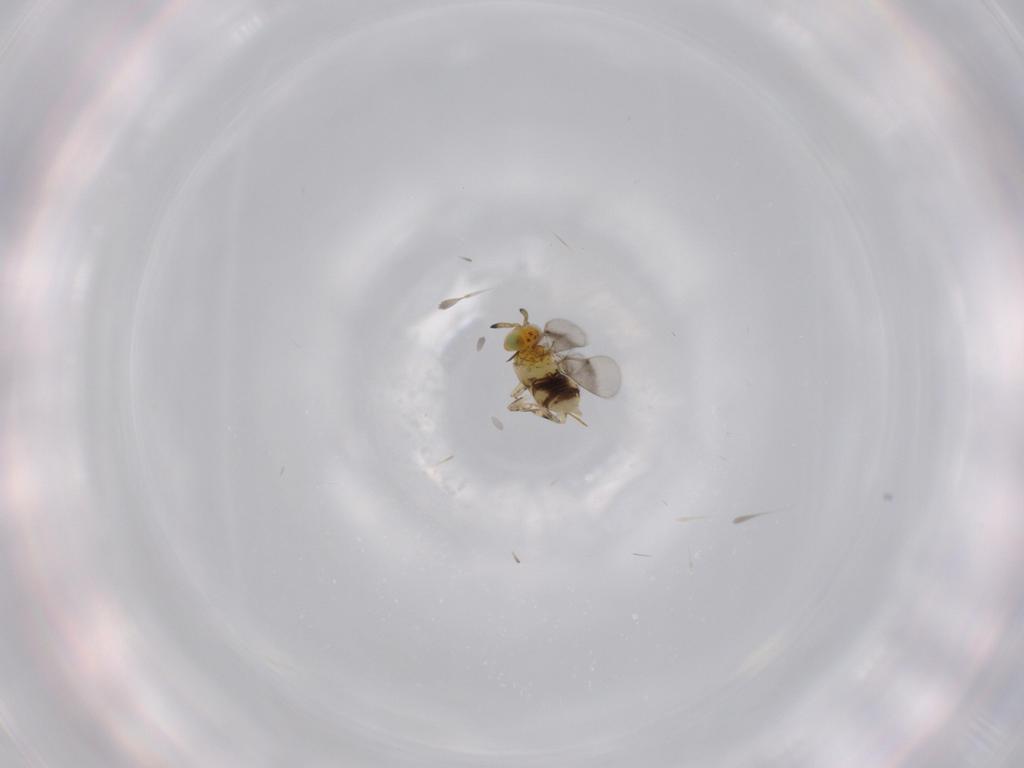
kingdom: Animalia
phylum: Arthropoda
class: Insecta
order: Hymenoptera
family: Aphelinidae
